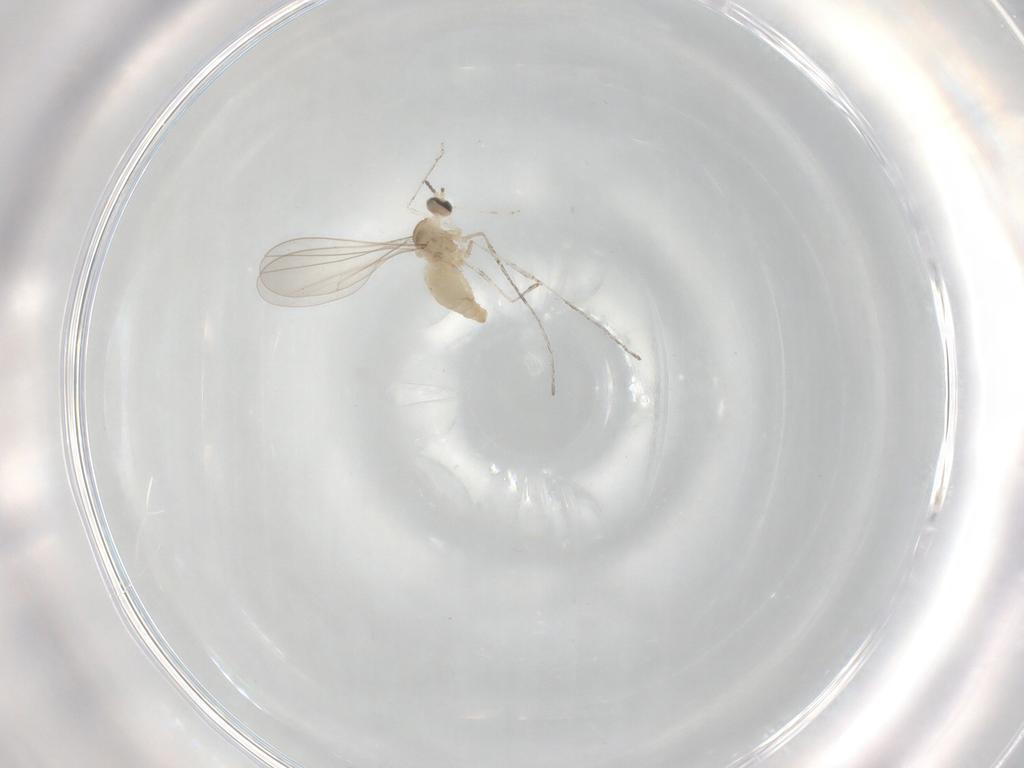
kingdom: Animalia
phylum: Arthropoda
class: Insecta
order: Diptera
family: Cecidomyiidae
